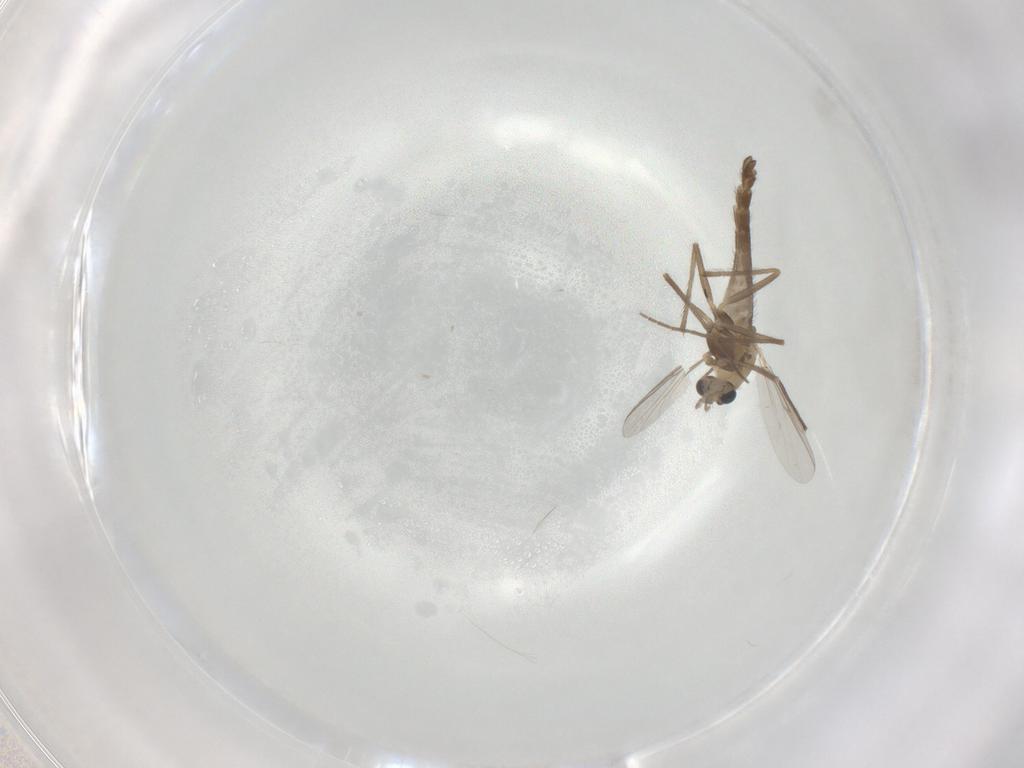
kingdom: Animalia
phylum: Arthropoda
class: Insecta
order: Diptera
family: Chironomidae
